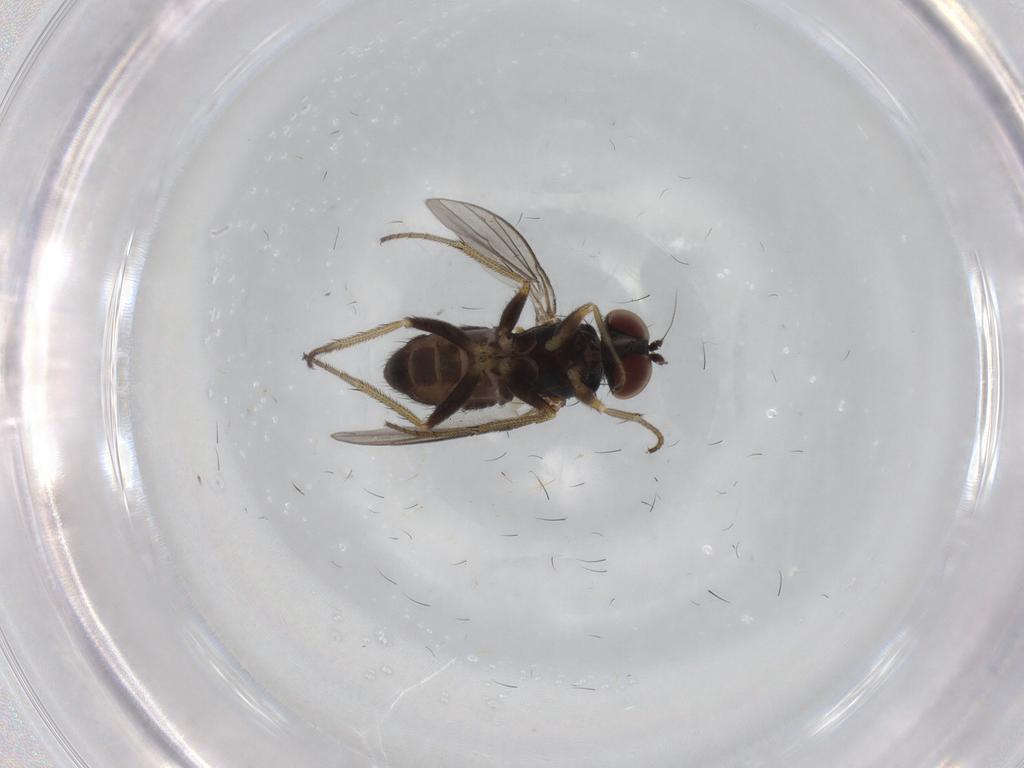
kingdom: Animalia
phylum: Arthropoda
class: Insecta
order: Diptera
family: Dolichopodidae
